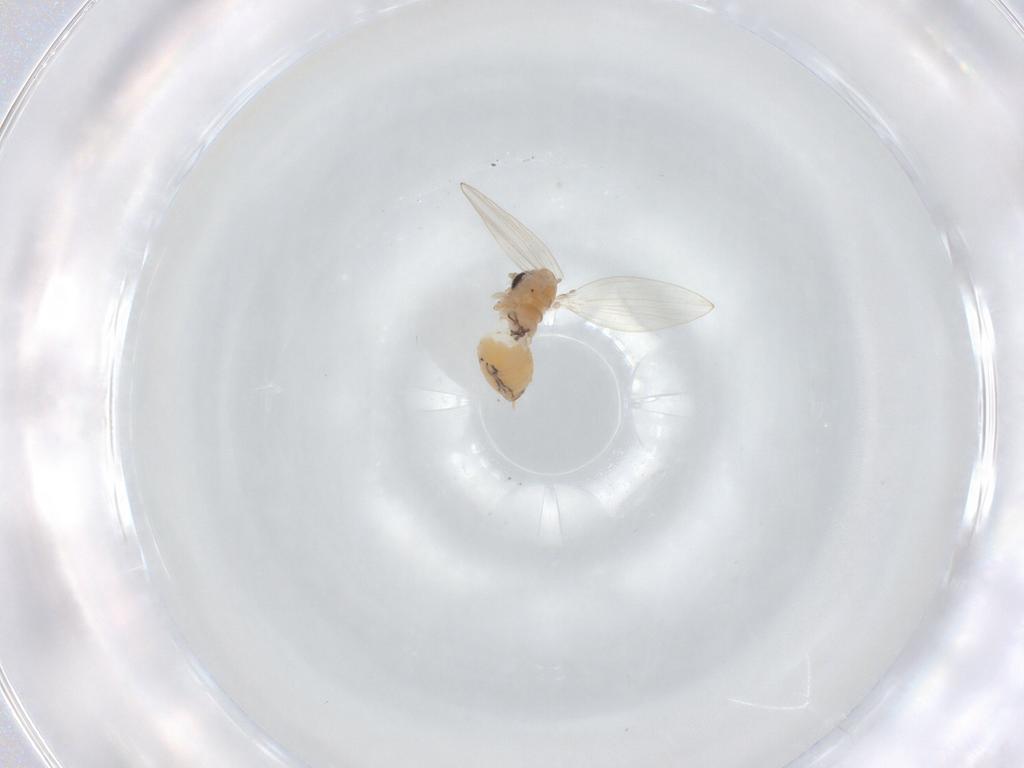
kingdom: Animalia
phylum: Arthropoda
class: Insecta
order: Diptera
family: Psychodidae
